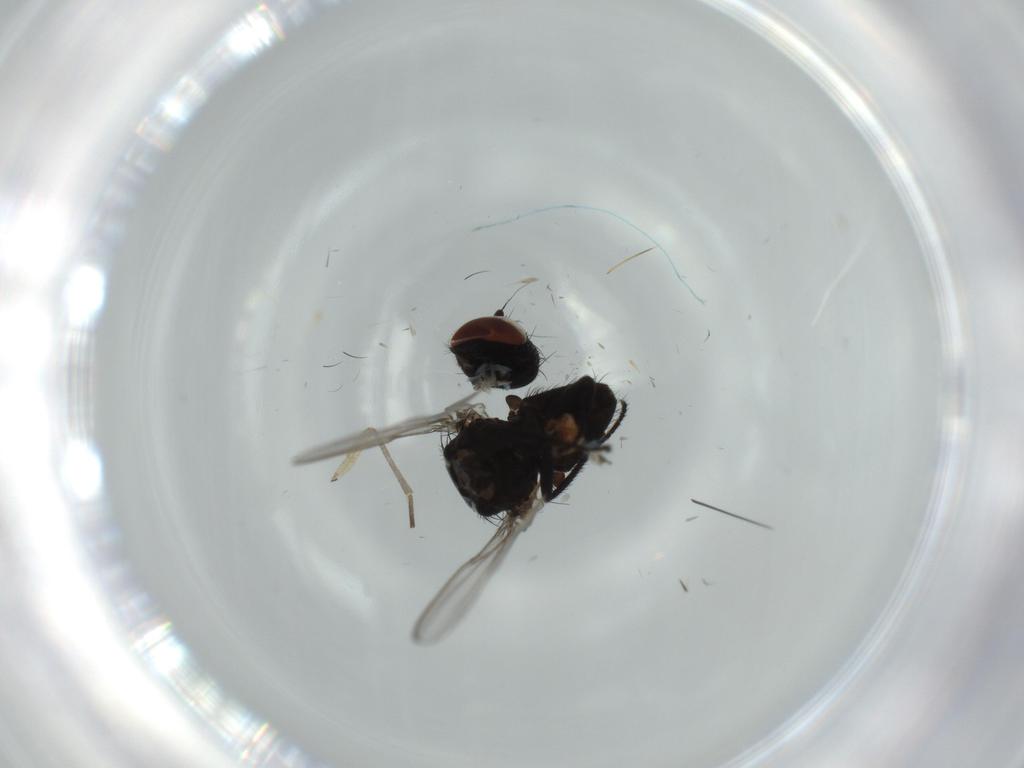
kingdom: Animalia
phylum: Arthropoda
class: Insecta
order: Diptera
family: Milichiidae
